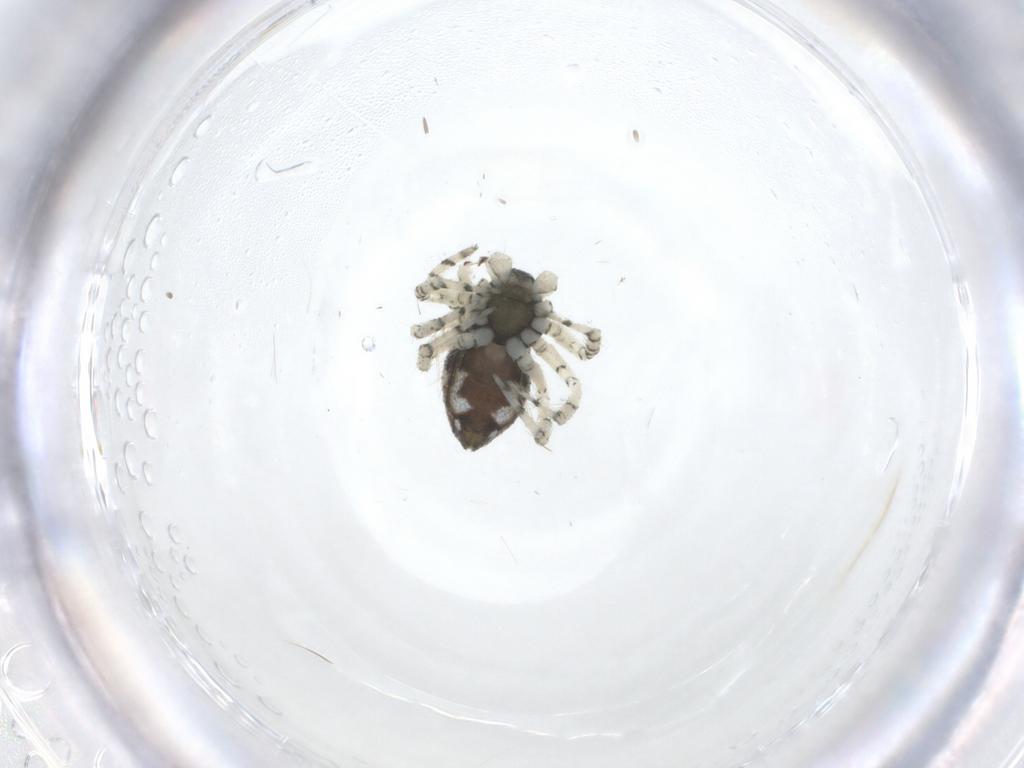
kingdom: Animalia
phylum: Arthropoda
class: Arachnida
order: Araneae
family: Theridiidae
